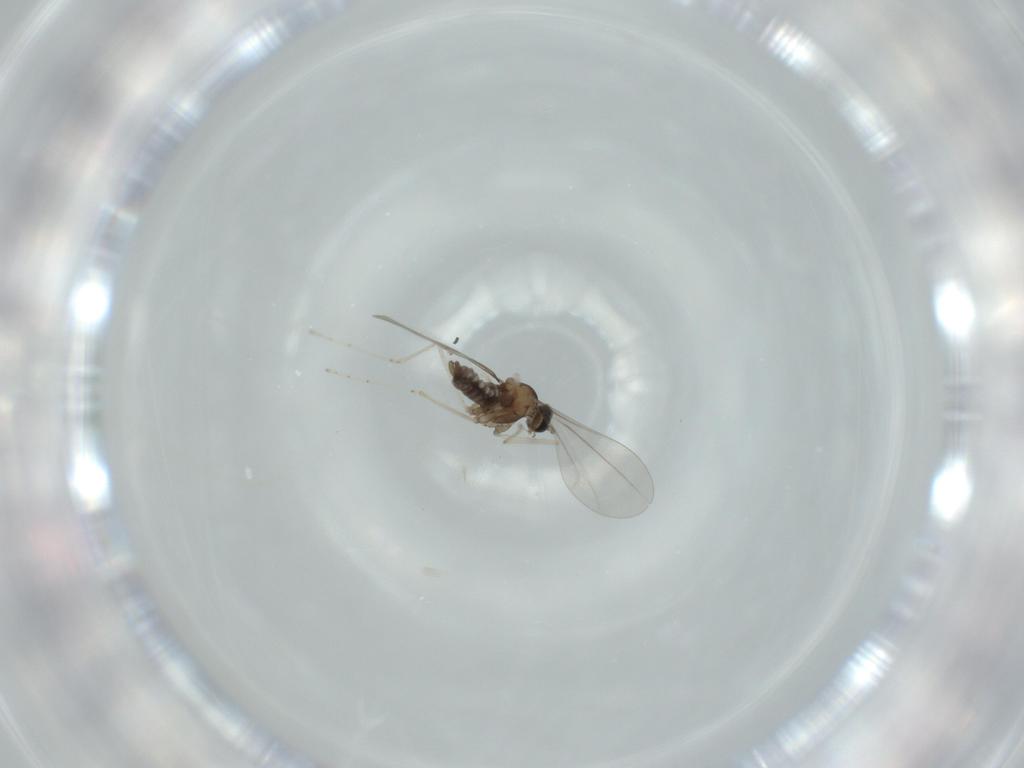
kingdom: Animalia
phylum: Arthropoda
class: Insecta
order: Diptera
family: Cecidomyiidae
